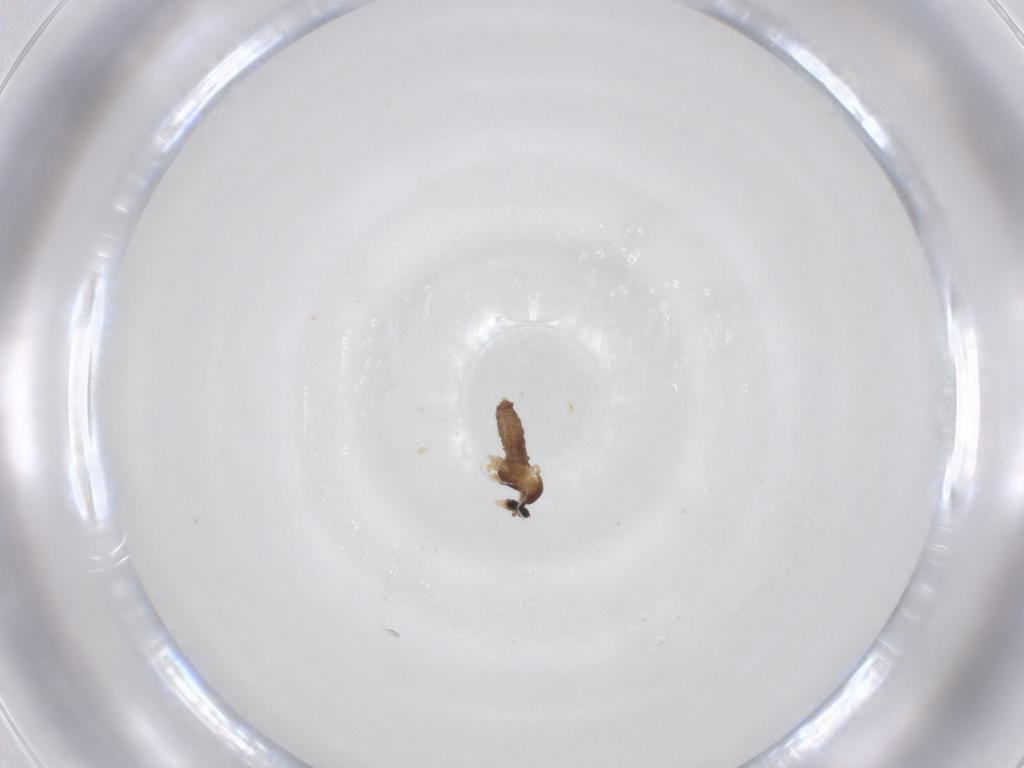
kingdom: Animalia
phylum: Arthropoda
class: Insecta
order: Diptera
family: Cecidomyiidae
